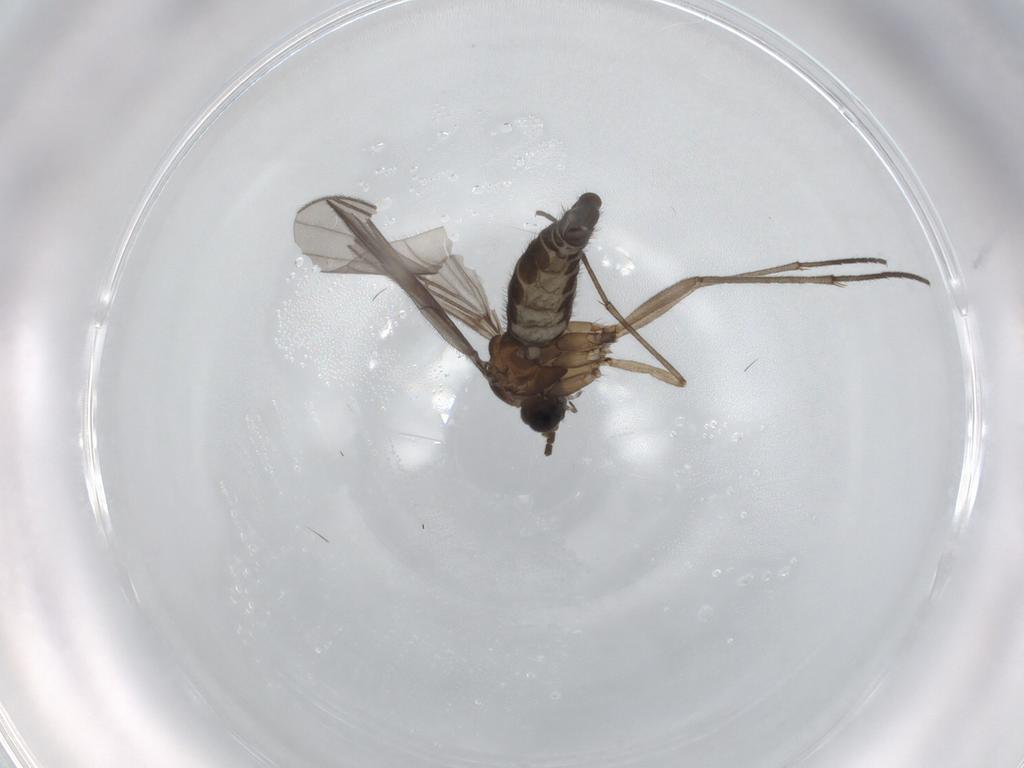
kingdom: Animalia
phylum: Arthropoda
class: Insecta
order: Diptera
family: Sciaridae
